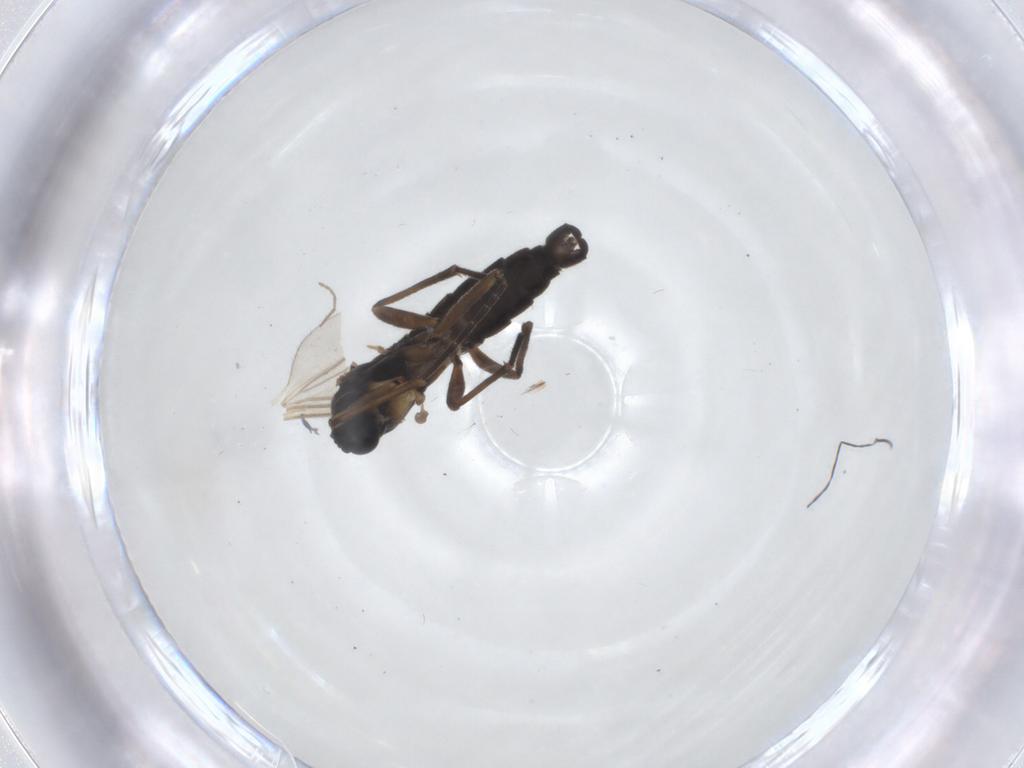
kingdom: Animalia
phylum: Arthropoda
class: Insecta
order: Diptera
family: Sciaridae
